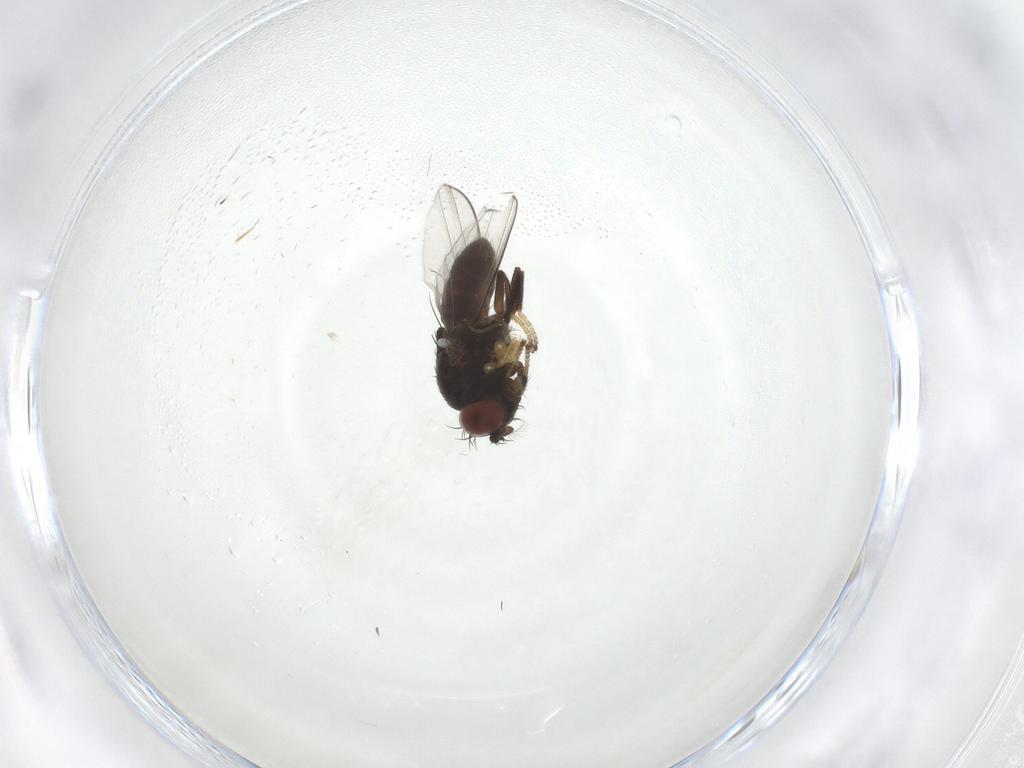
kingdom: Animalia
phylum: Arthropoda
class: Insecta
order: Diptera
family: Ephydridae
